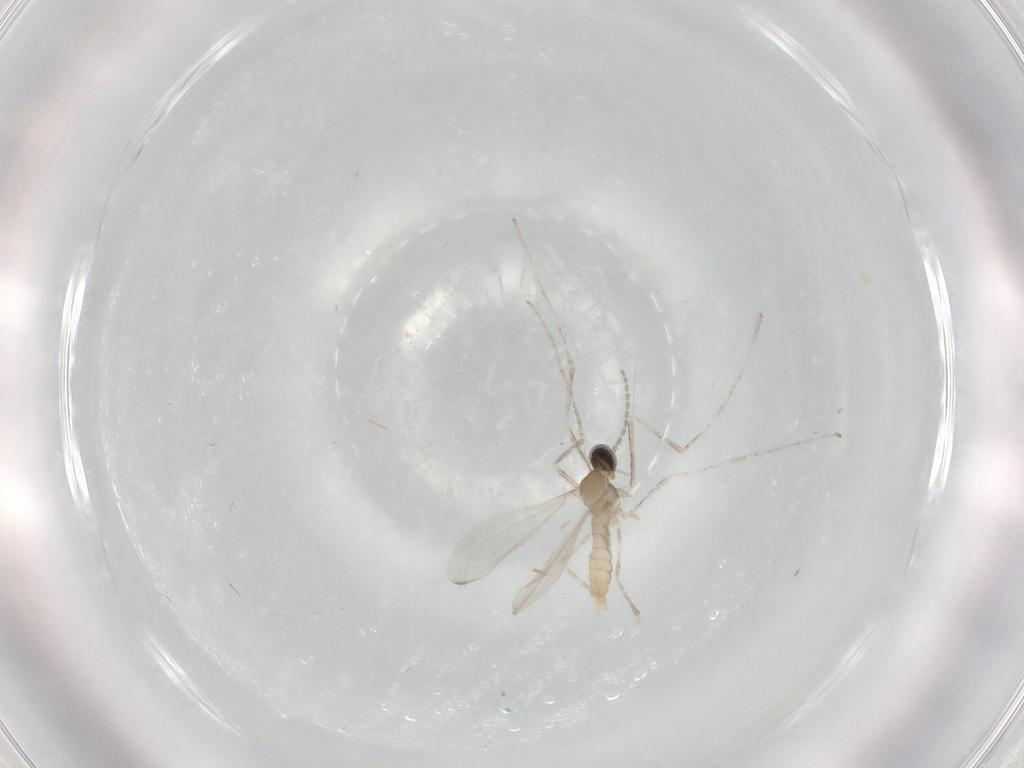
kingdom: Animalia
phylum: Arthropoda
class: Insecta
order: Diptera
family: Cecidomyiidae
